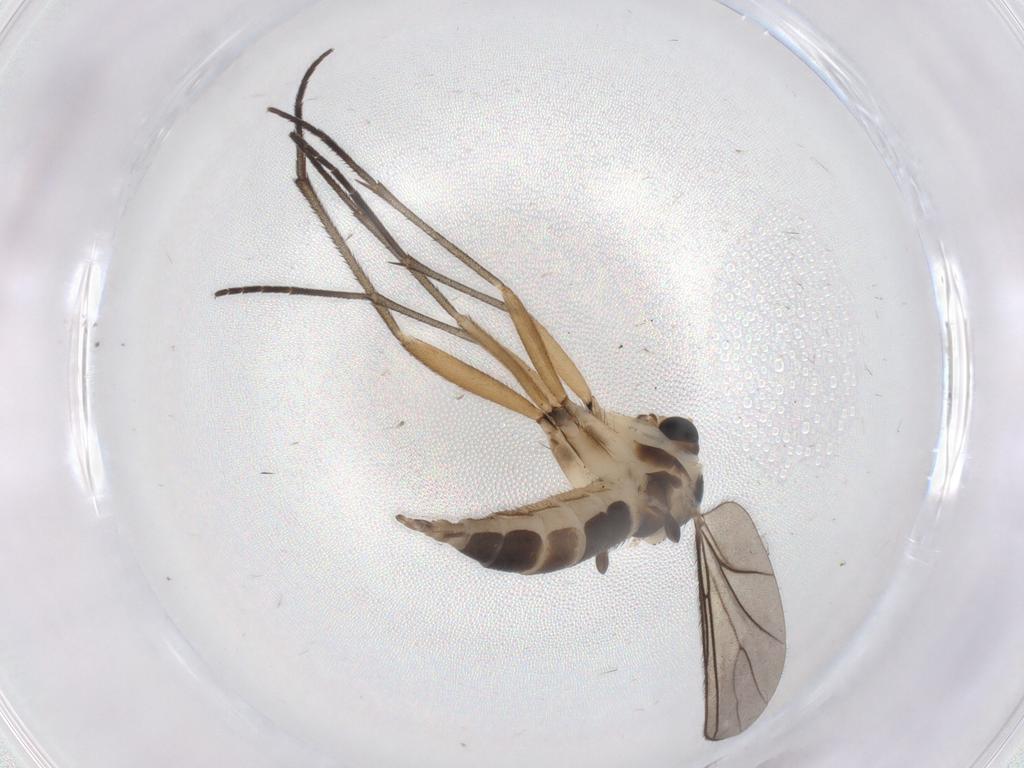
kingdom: Animalia
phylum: Arthropoda
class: Insecta
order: Diptera
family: Sciaridae
